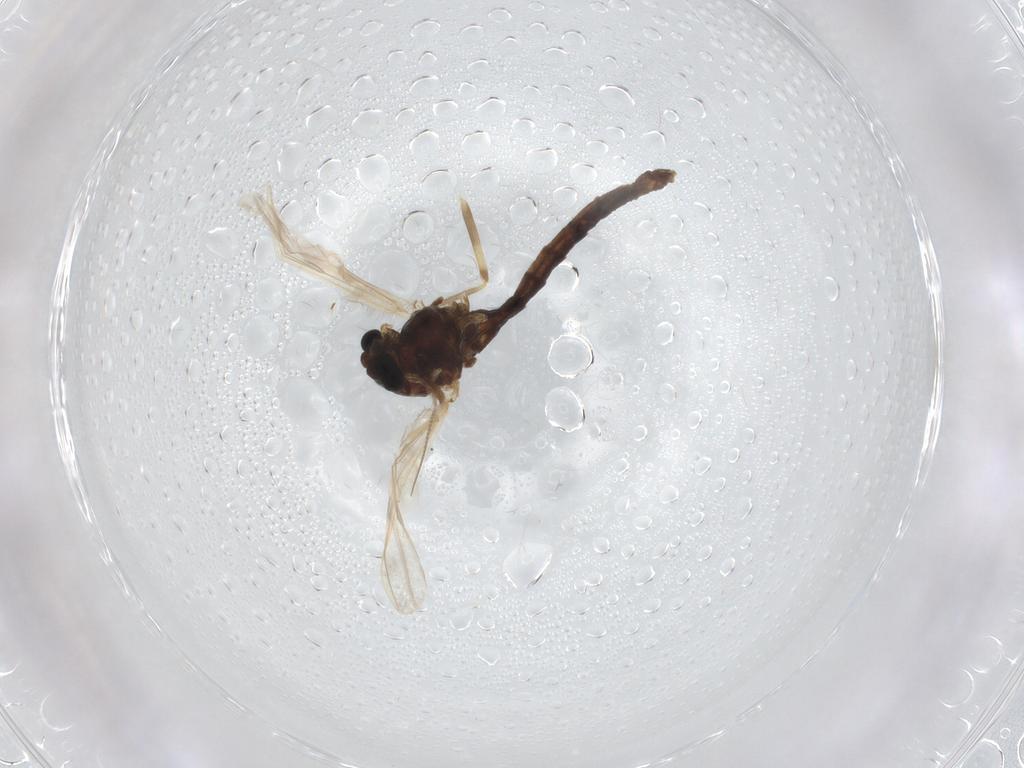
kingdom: Animalia
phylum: Arthropoda
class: Insecta
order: Diptera
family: Chironomidae
